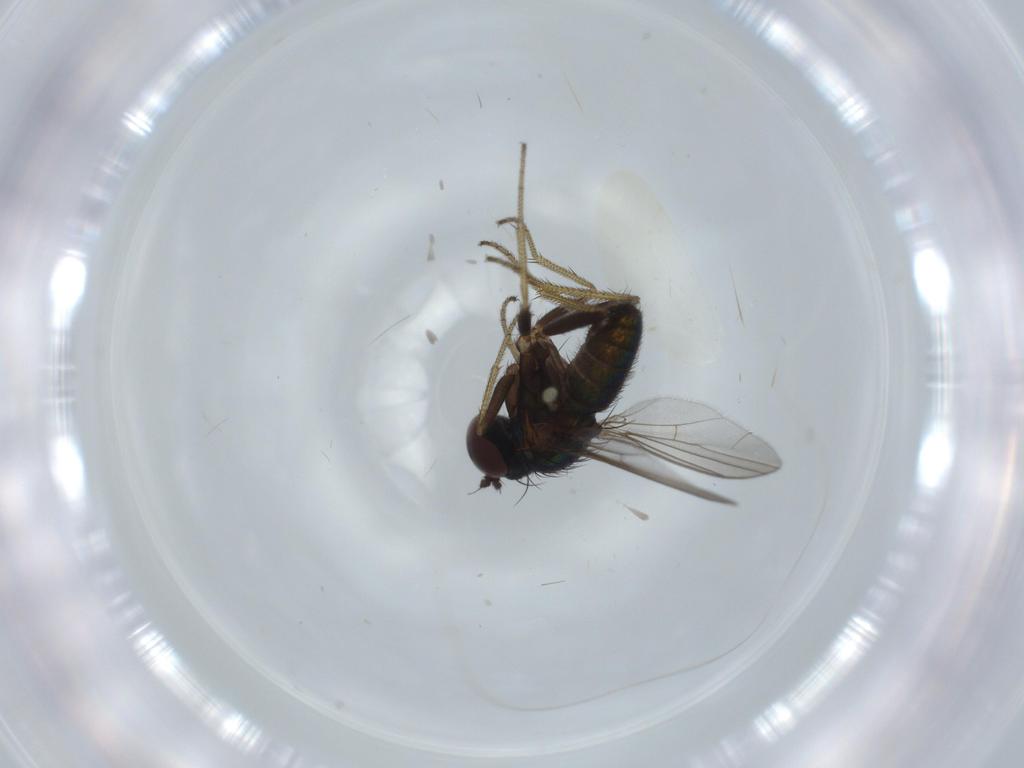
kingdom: Animalia
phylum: Arthropoda
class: Insecta
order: Diptera
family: Dolichopodidae
